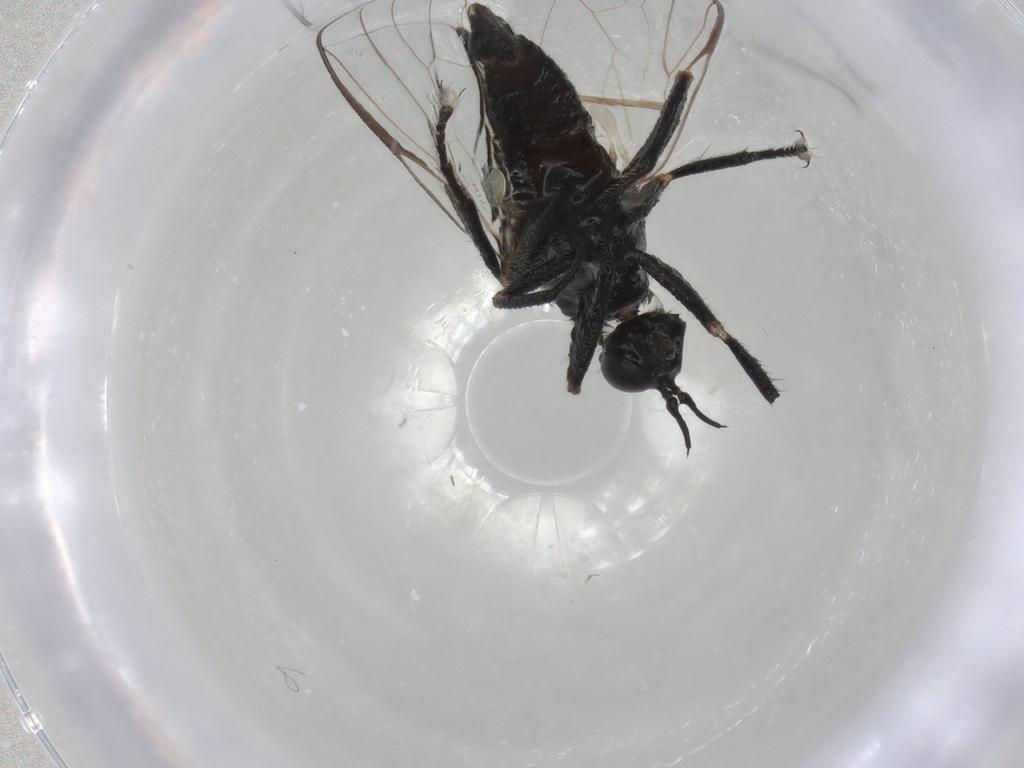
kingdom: Animalia
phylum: Arthropoda
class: Insecta
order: Diptera
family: Empididae
